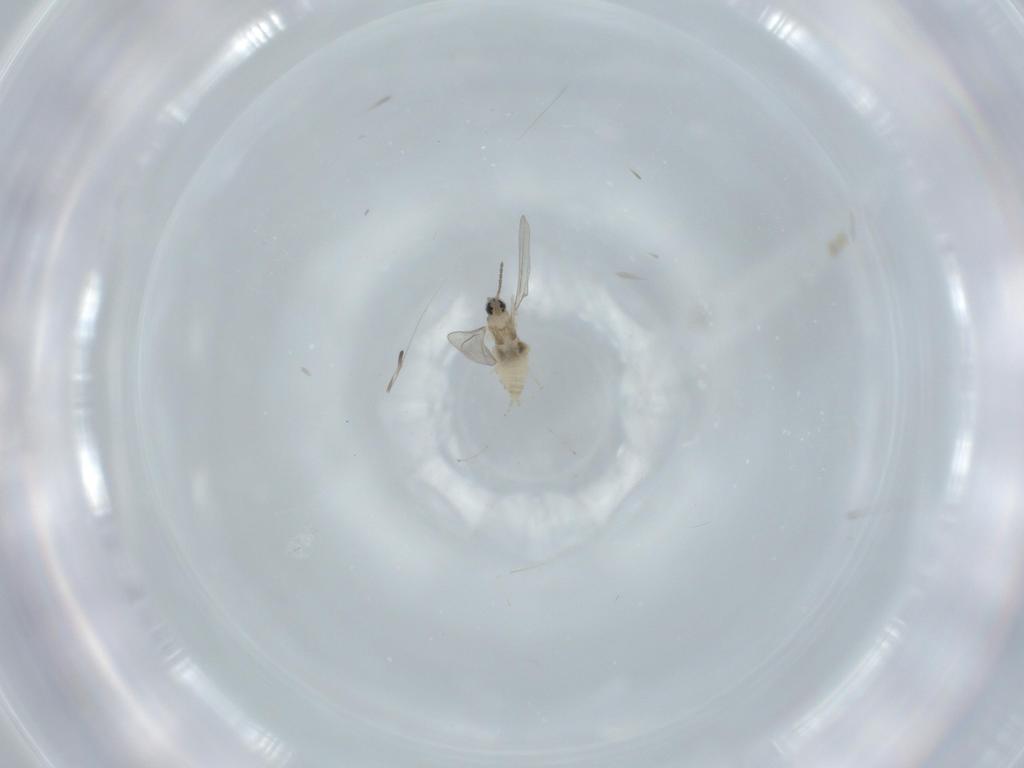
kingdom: Animalia
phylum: Arthropoda
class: Insecta
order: Diptera
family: Cecidomyiidae
